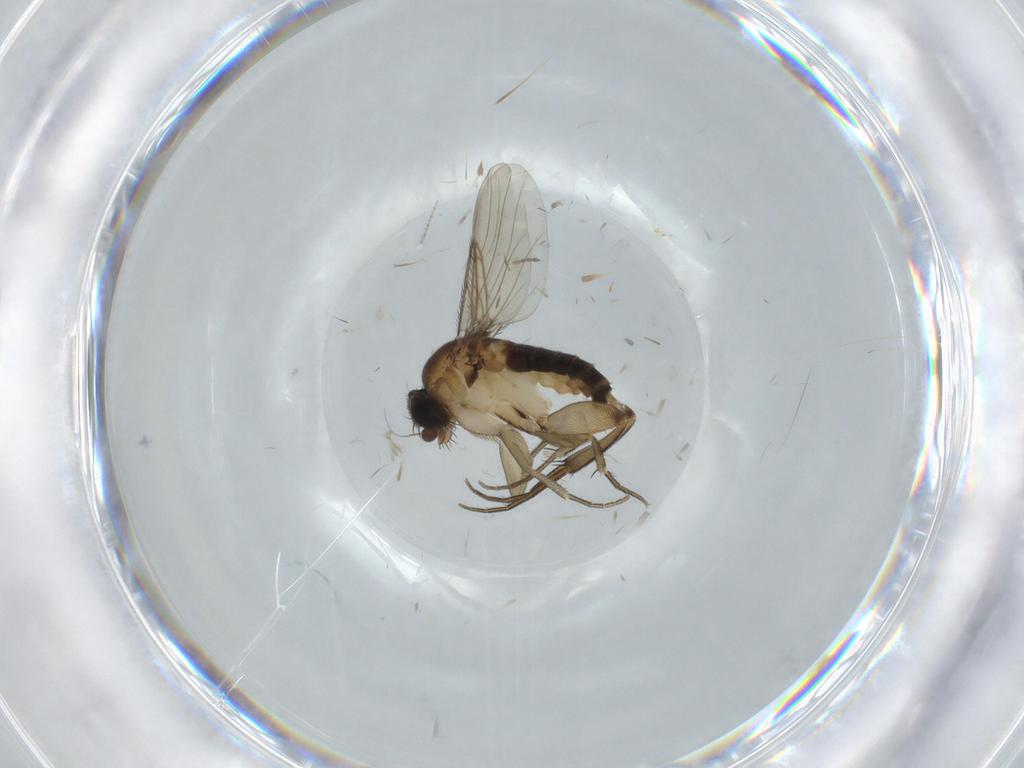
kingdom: Animalia
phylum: Arthropoda
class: Insecta
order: Diptera
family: Phoridae
